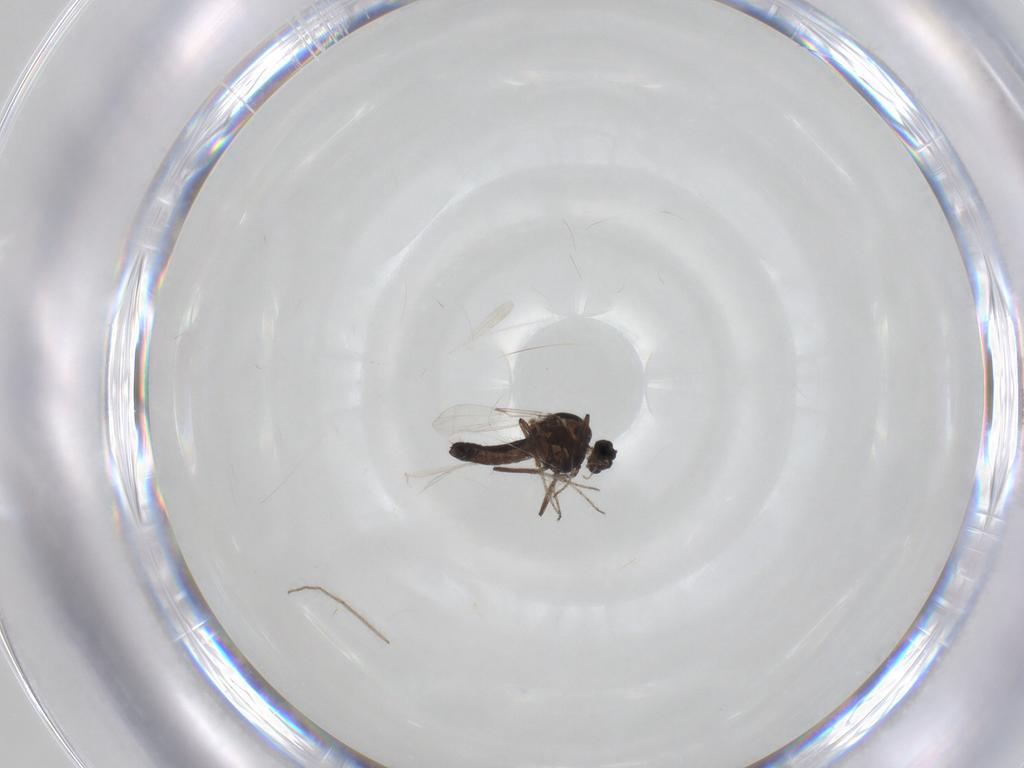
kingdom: Animalia
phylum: Arthropoda
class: Insecta
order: Diptera
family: Ceratopogonidae
